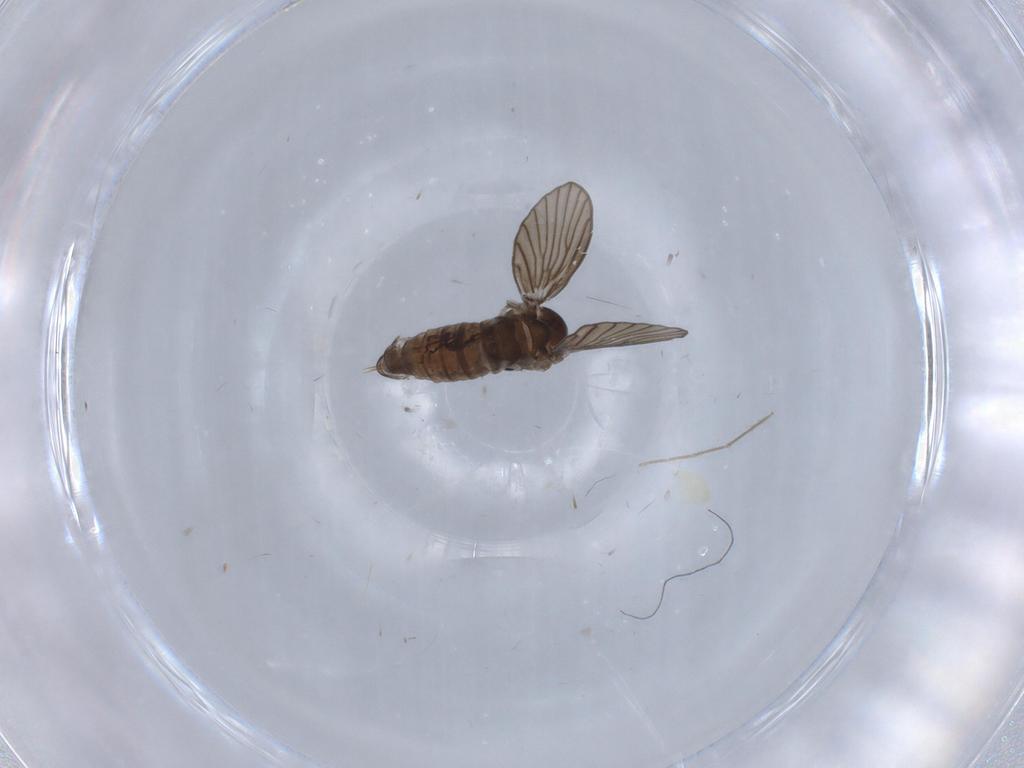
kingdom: Animalia
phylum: Arthropoda
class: Insecta
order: Diptera
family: Psychodidae
